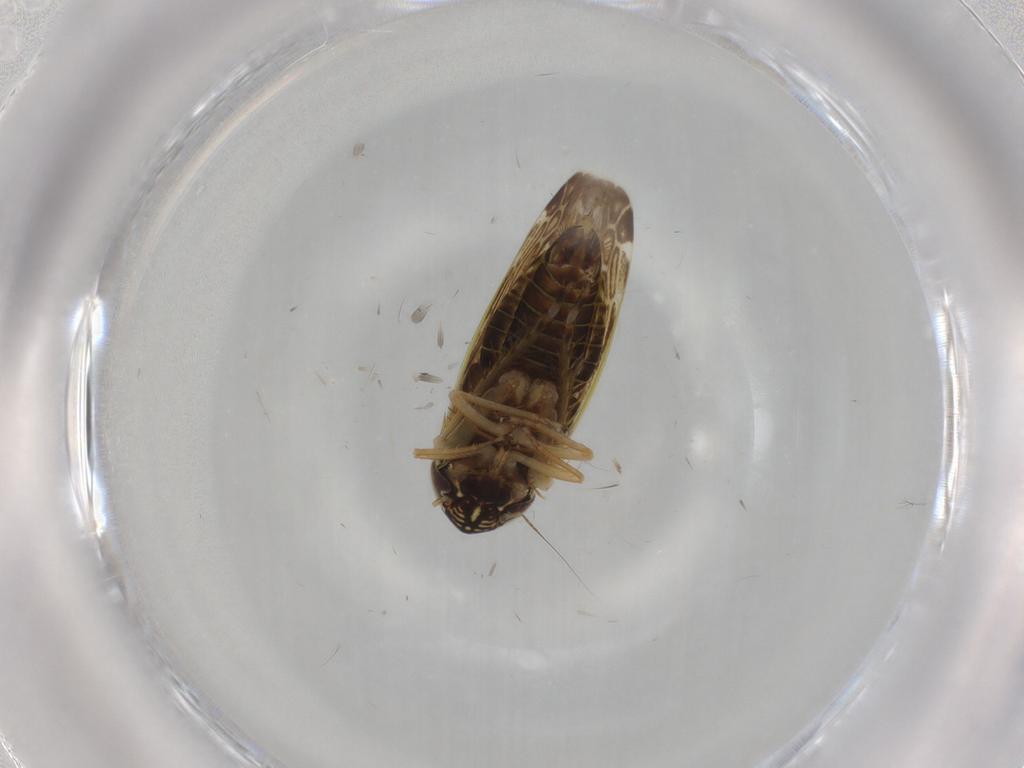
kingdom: Animalia
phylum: Arthropoda
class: Insecta
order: Hemiptera
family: Cicadellidae
